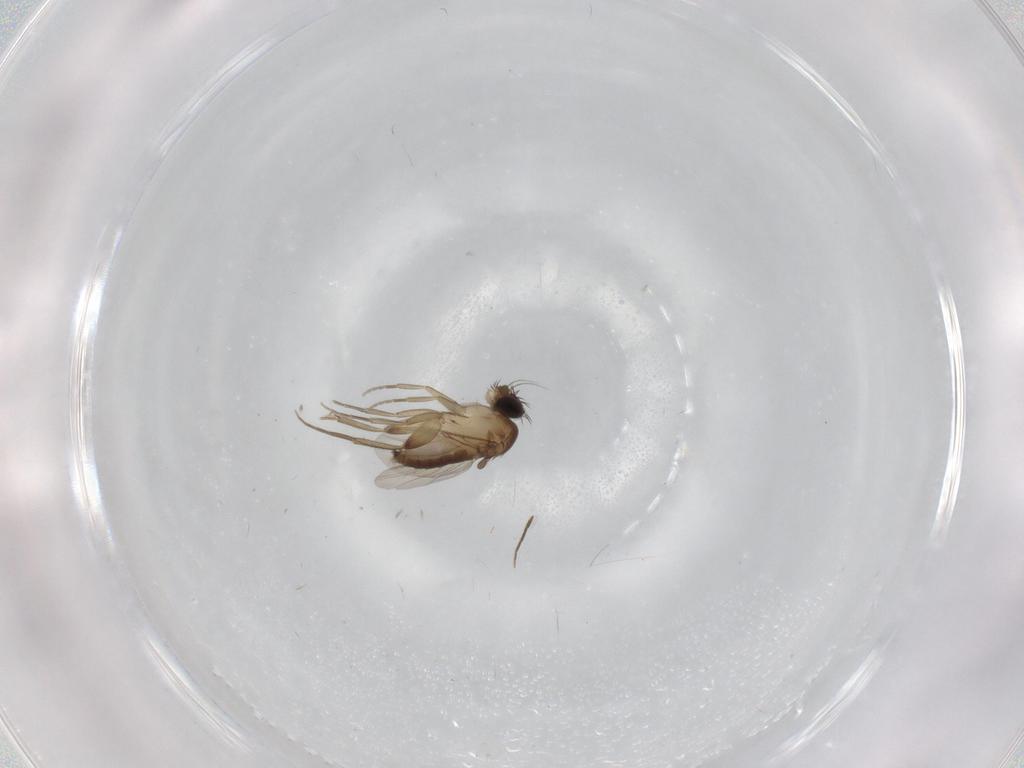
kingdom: Animalia
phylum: Arthropoda
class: Insecta
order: Diptera
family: Phoridae
